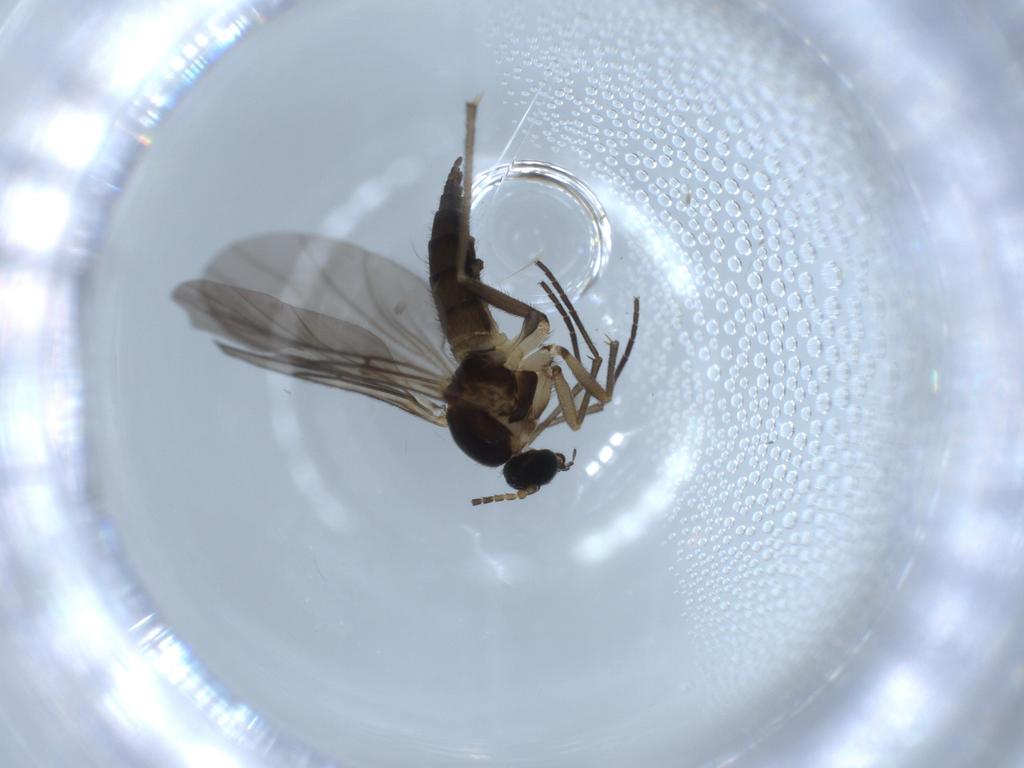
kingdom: Animalia
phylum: Arthropoda
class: Insecta
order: Diptera
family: Sciaridae
